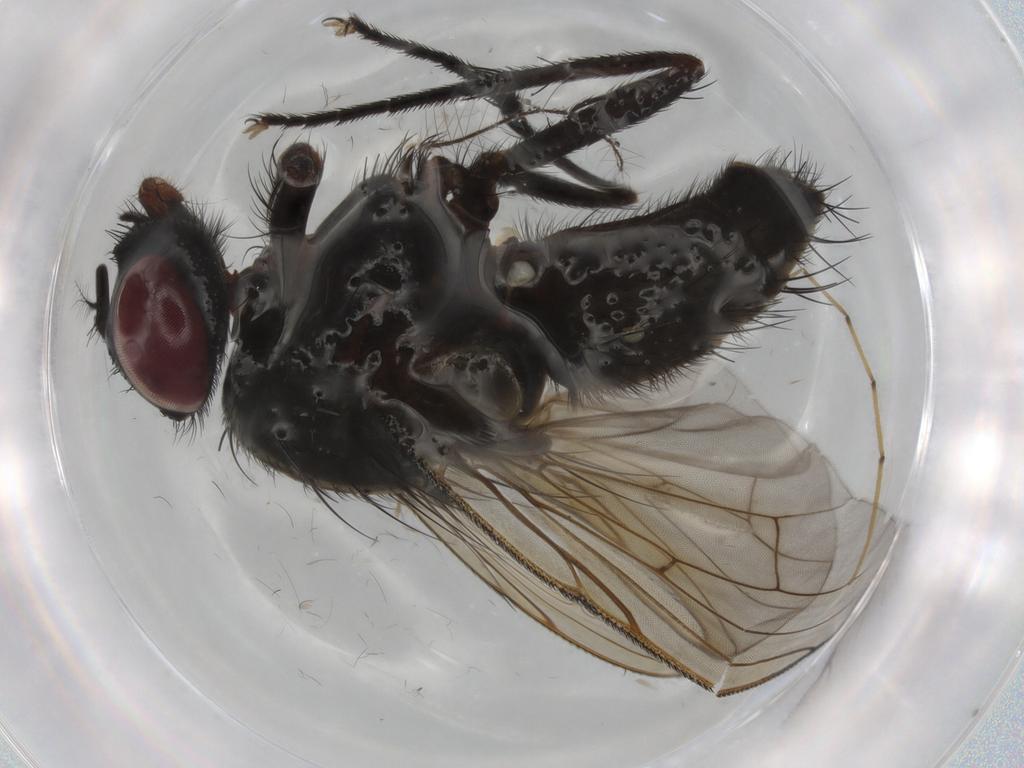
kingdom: Animalia
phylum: Arthropoda
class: Insecta
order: Diptera
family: Muscidae
